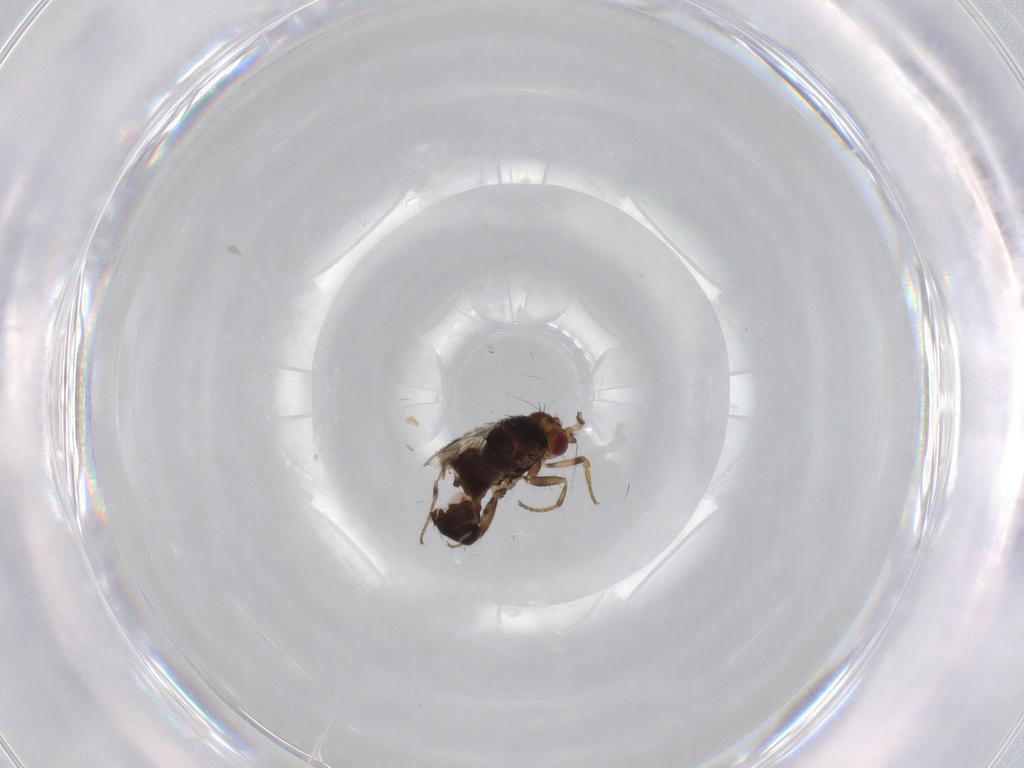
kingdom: Animalia
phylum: Arthropoda
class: Insecta
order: Diptera
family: Sphaeroceridae
